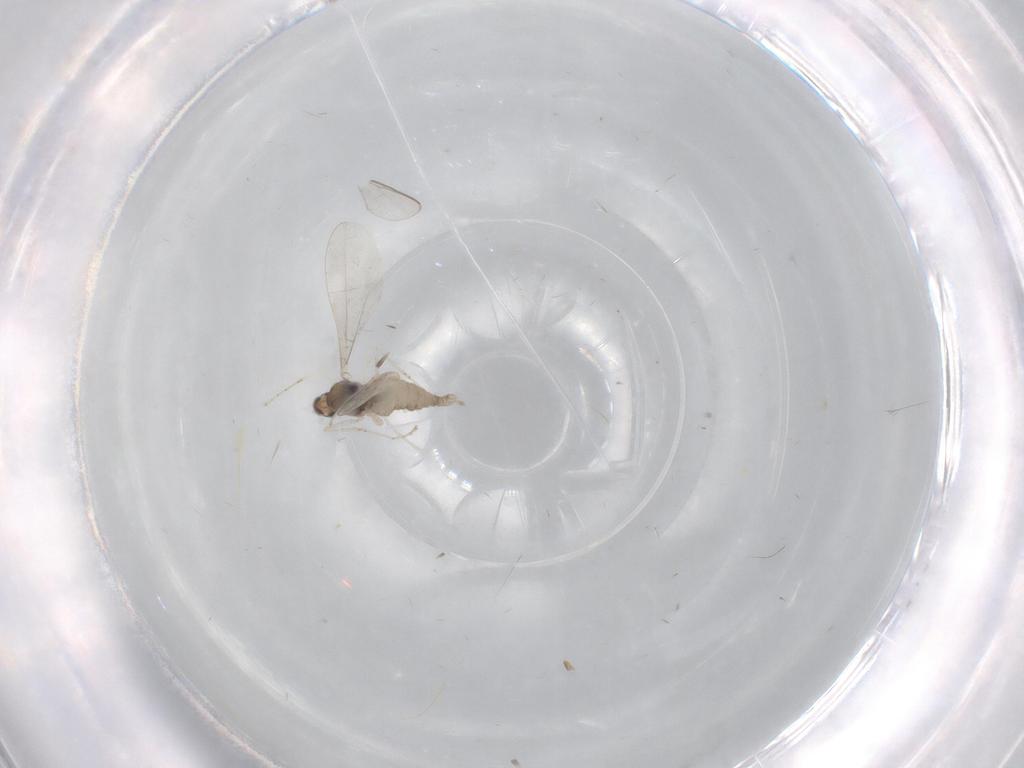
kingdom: Animalia
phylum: Arthropoda
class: Insecta
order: Diptera
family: Cecidomyiidae
